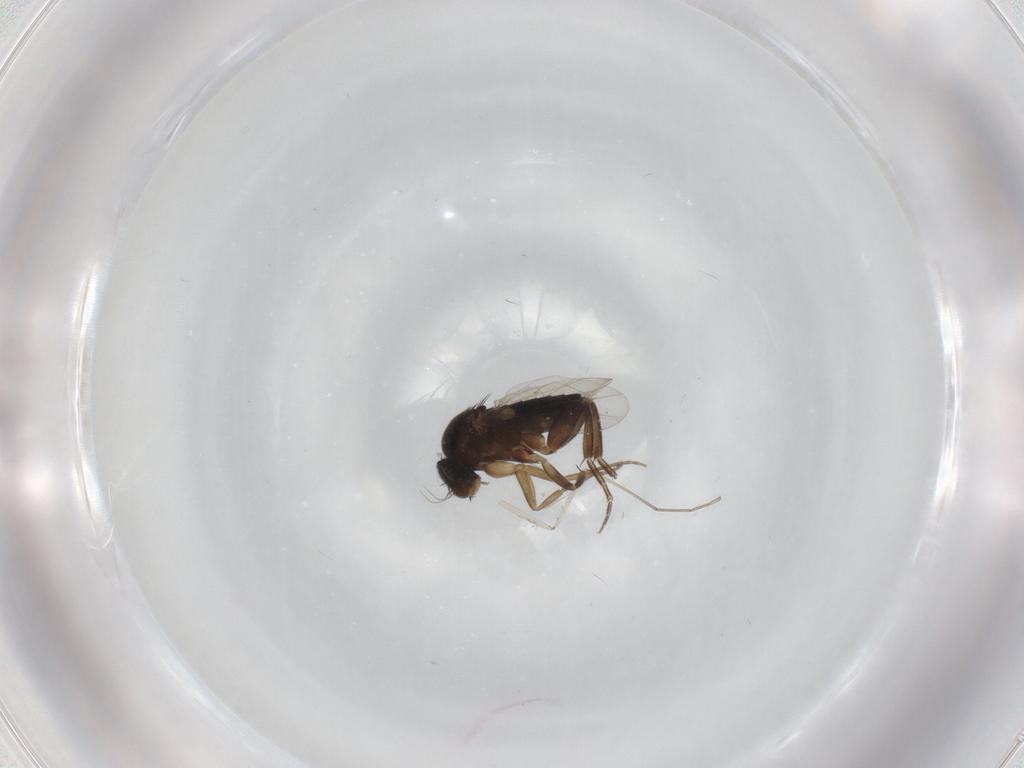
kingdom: Animalia
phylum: Arthropoda
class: Insecta
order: Diptera
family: Phoridae
